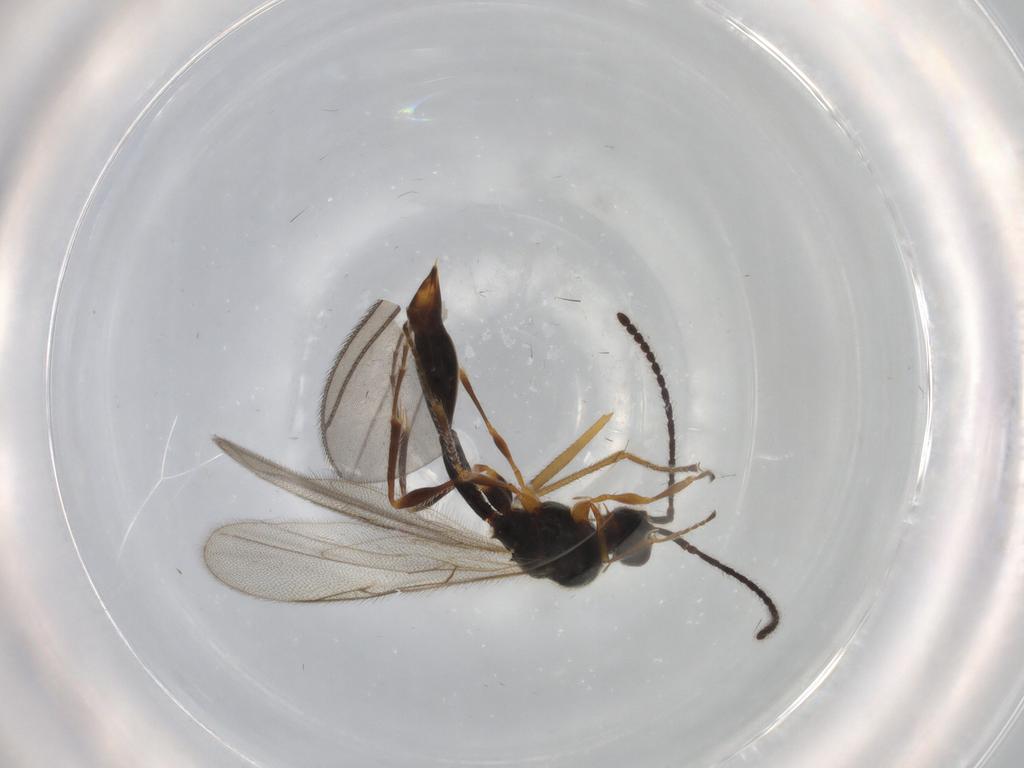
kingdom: Animalia
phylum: Arthropoda
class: Insecta
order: Hymenoptera
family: Diapriidae
